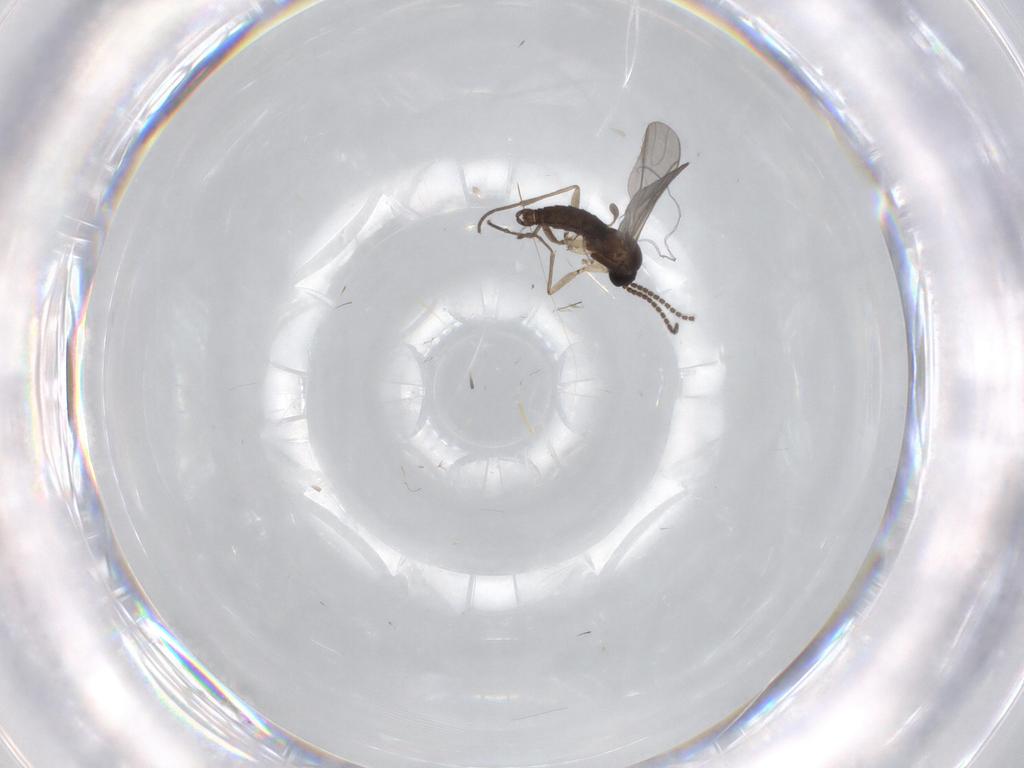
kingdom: Animalia
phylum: Arthropoda
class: Insecta
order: Diptera
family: Sciaridae
